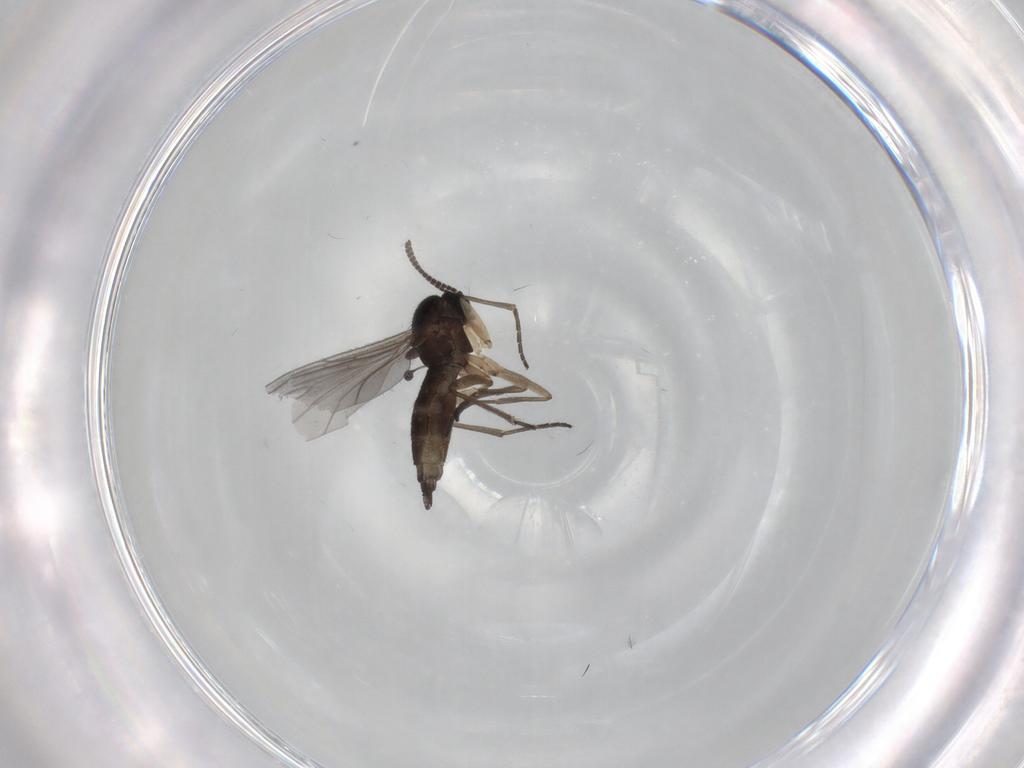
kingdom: Animalia
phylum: Arthropoda
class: Insecta
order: Diptera
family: Sciaridae
